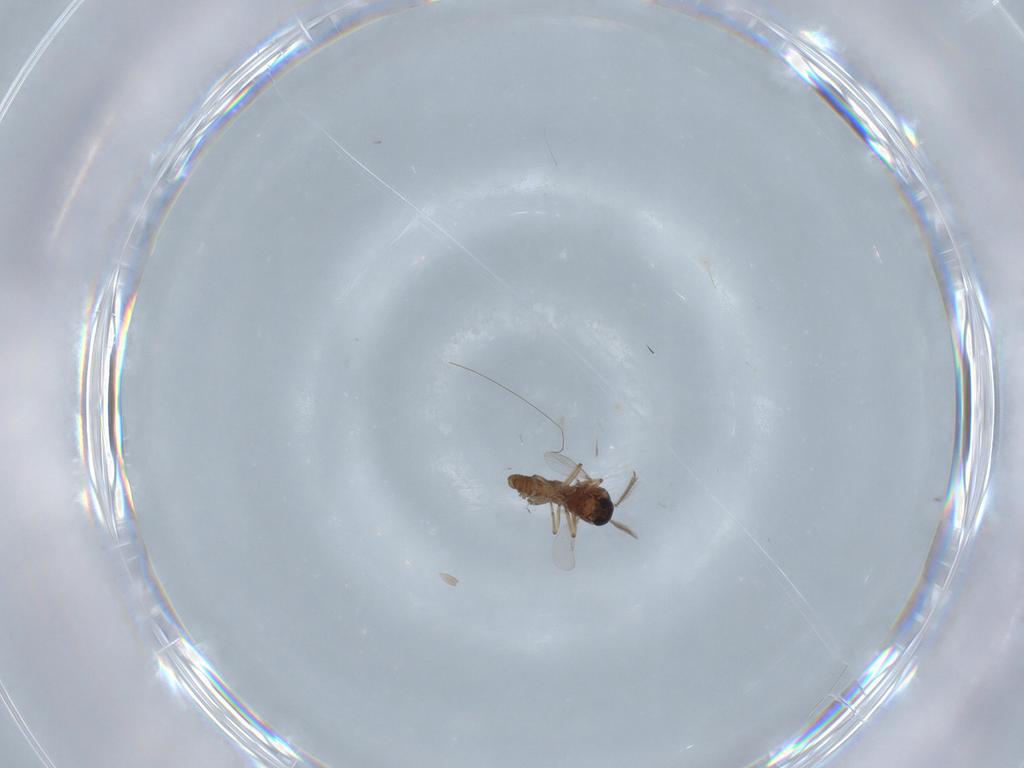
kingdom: Animalia
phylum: Arthropoda
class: Insecta
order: Diptera
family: Ceratopogonidae
